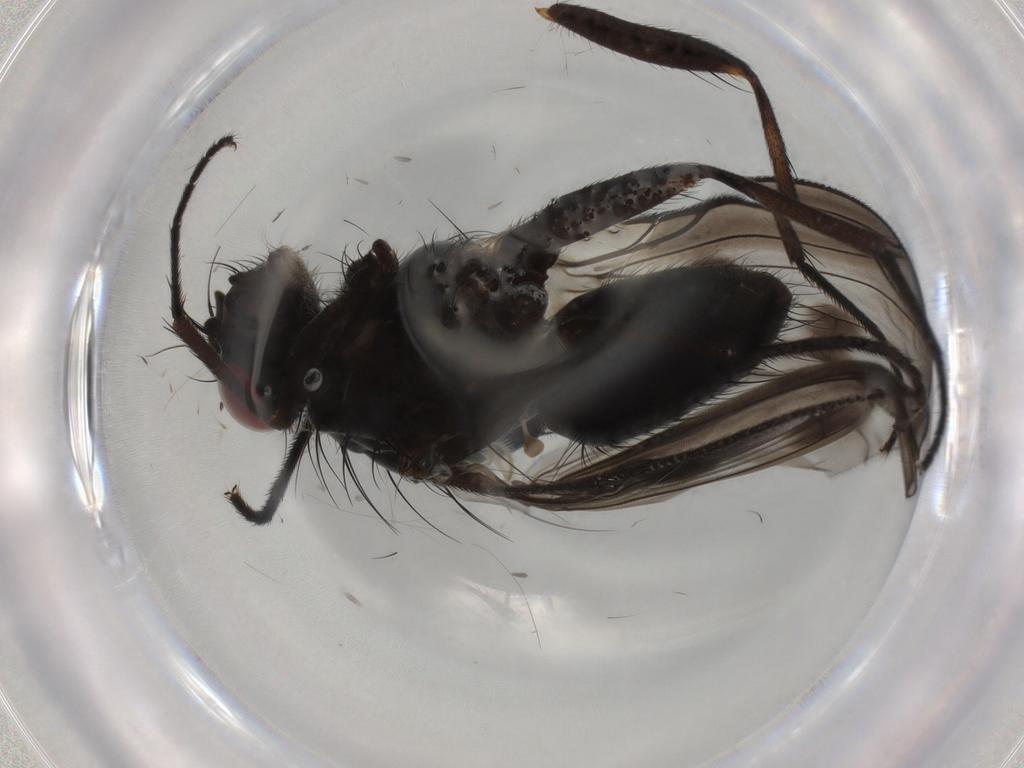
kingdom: Animalia
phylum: Arthropoda
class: Insecta
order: Diptera
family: Muscidae
